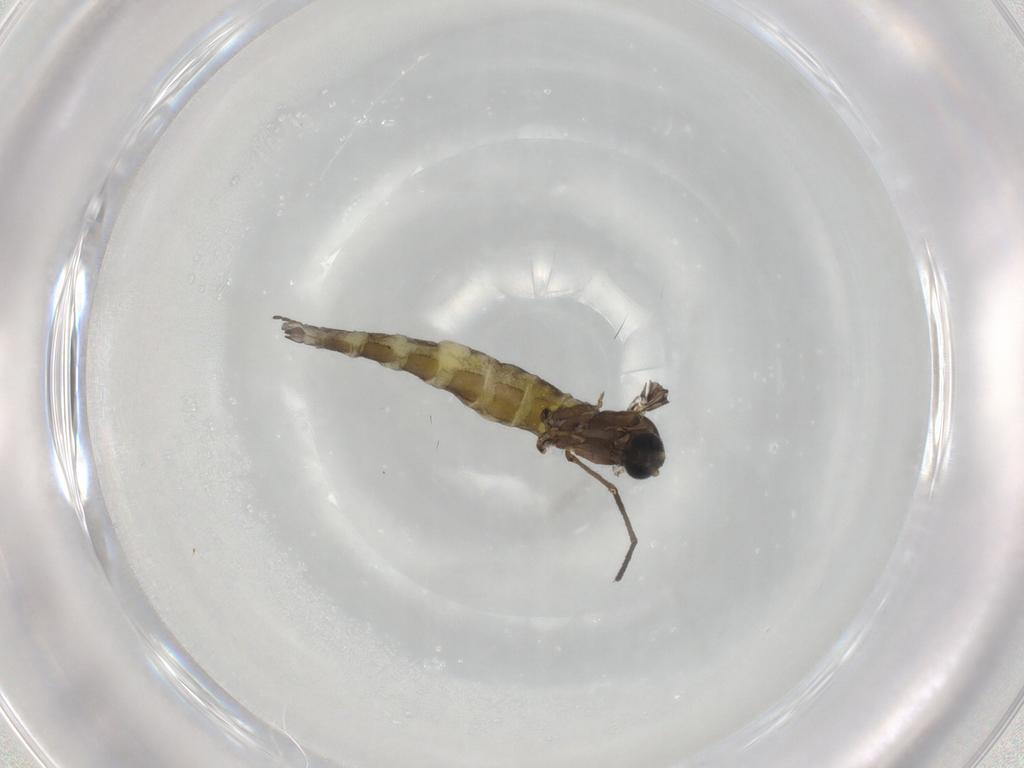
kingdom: Animalia
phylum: Arthropoda
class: Insecta
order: Diptera
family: Sciaridae
